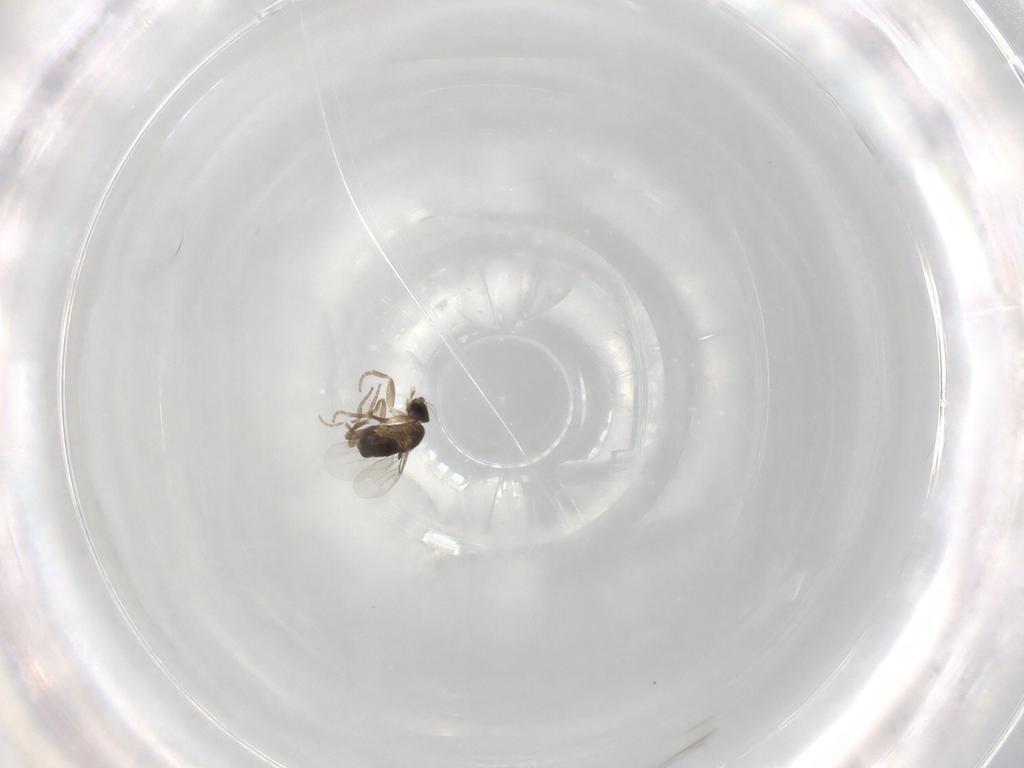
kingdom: Animalia
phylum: Arthropoda
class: Insecta
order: Diptera
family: Phoridae
